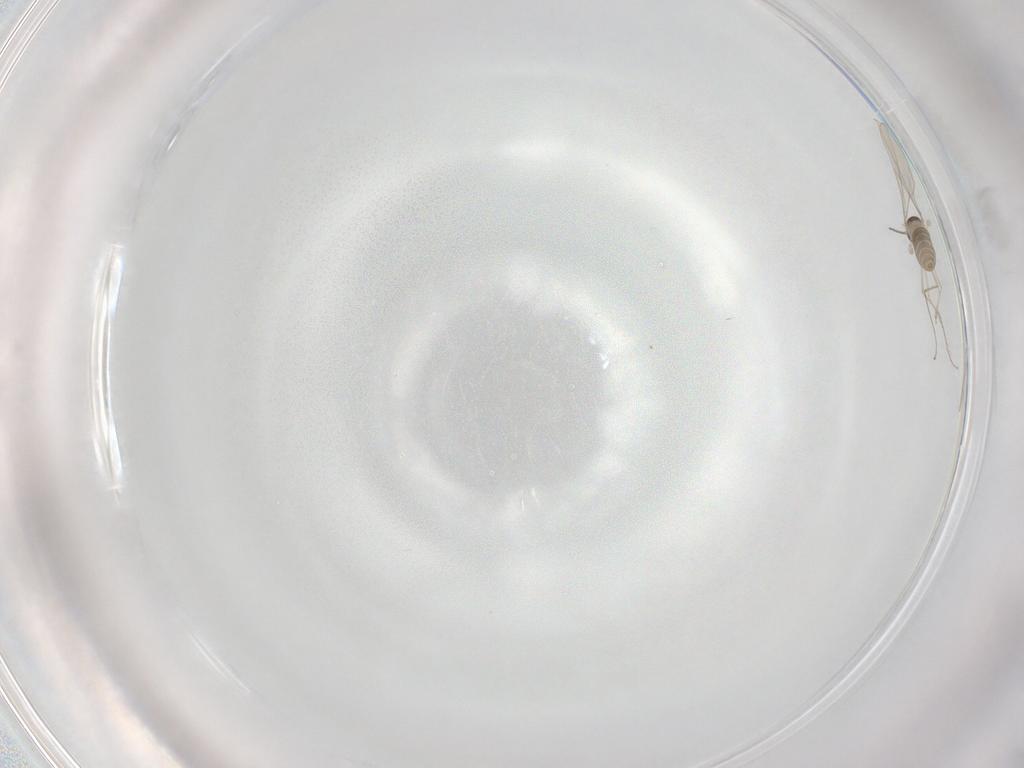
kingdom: Animalia
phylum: Arthropoda
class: Insecta
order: Diptera
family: Cecidomyiidae
